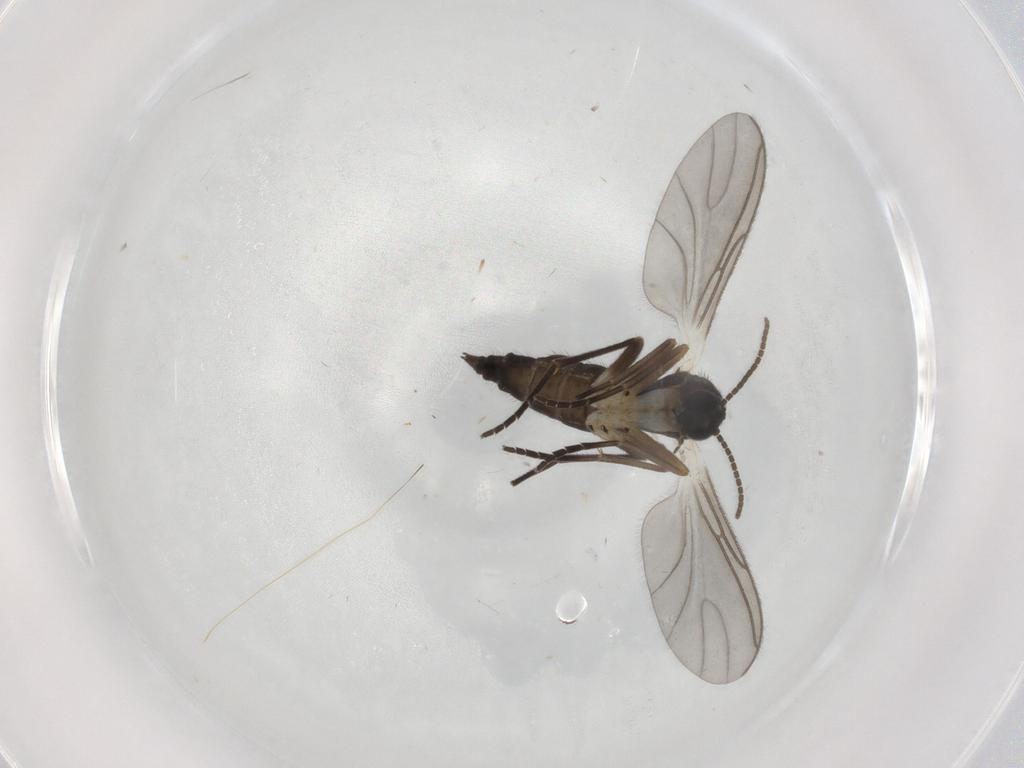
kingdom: Animalia
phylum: Arthropoda
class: Insecta
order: Diptera
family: Sciaridae
